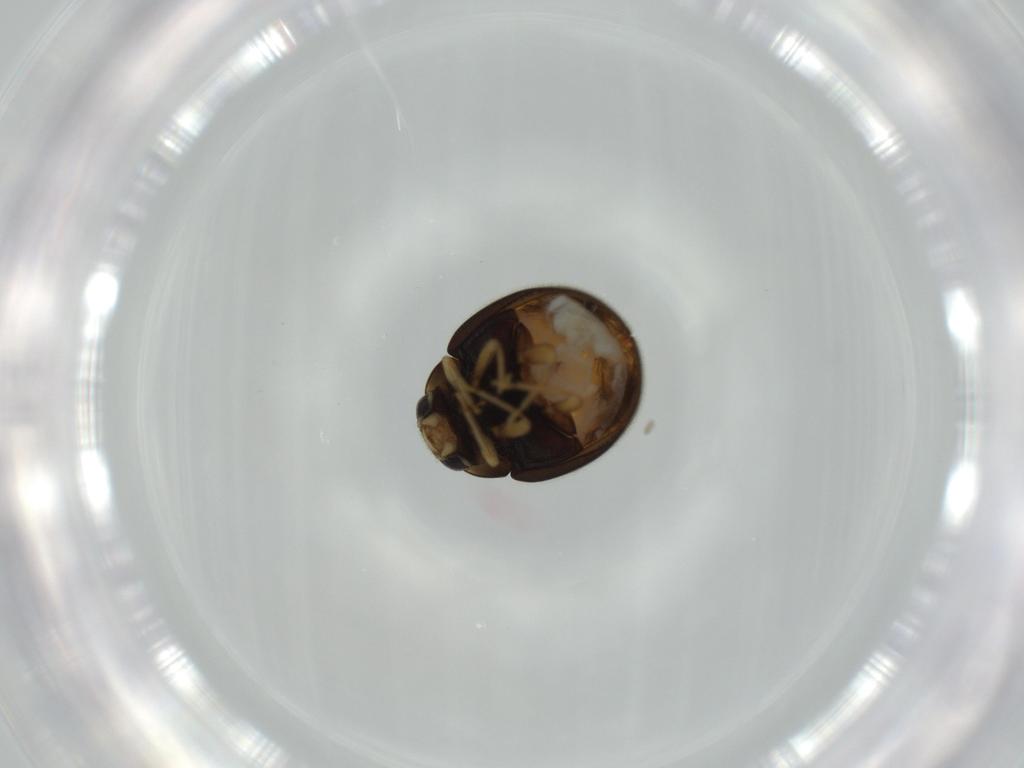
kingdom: Animalia
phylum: Arthropoda
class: Insecta
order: Coleoptera
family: Coccinellidae
